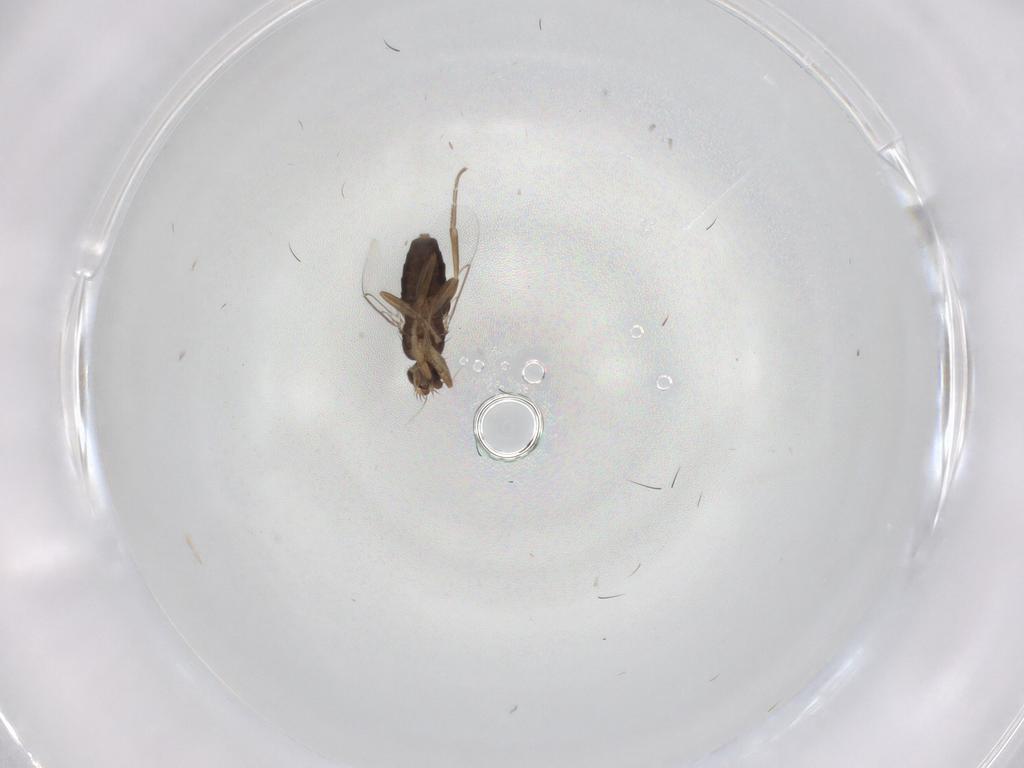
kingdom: Animalia
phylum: Arthropoda
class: Insecta
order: Diptera
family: Phoridae
